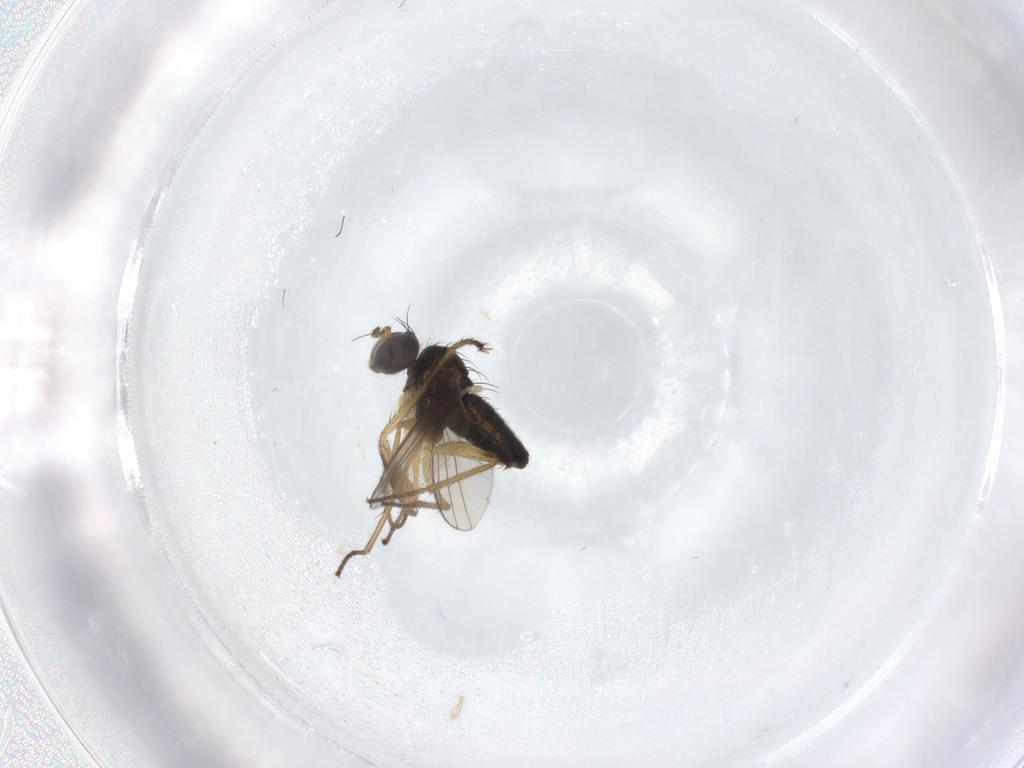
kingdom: Animalia
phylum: Arthropoda
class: Insecta
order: Diptera
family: Dolichopodidae
